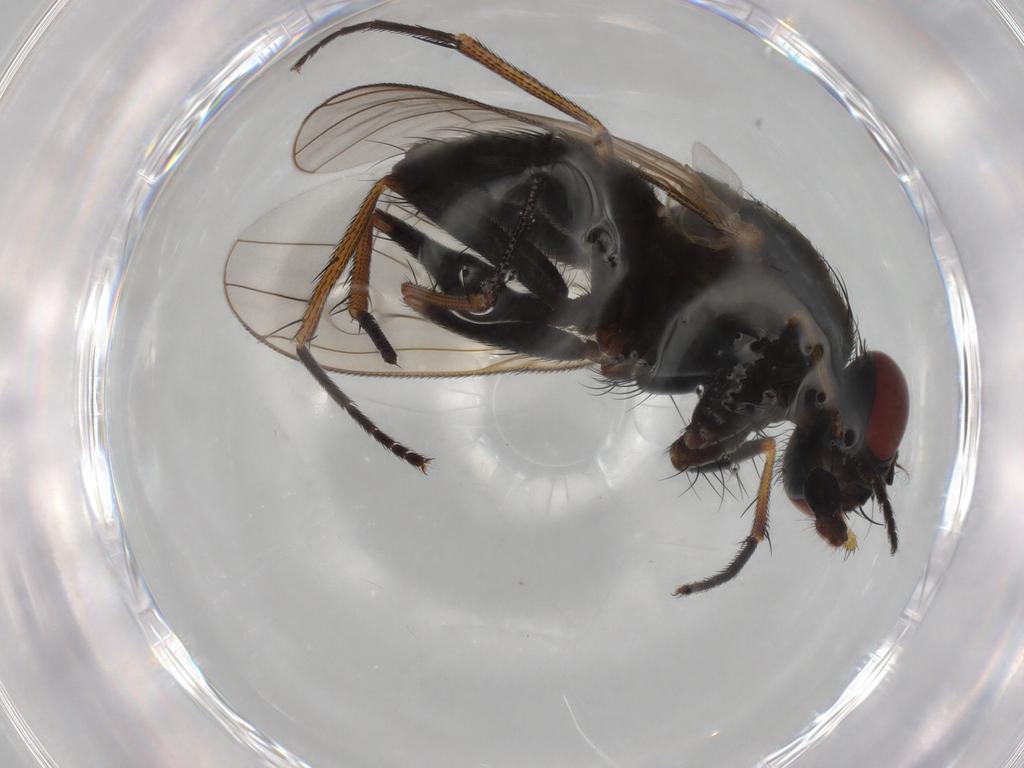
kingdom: Animalia
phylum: Arthropoda
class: Insecta
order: Diptera
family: Muscidae
